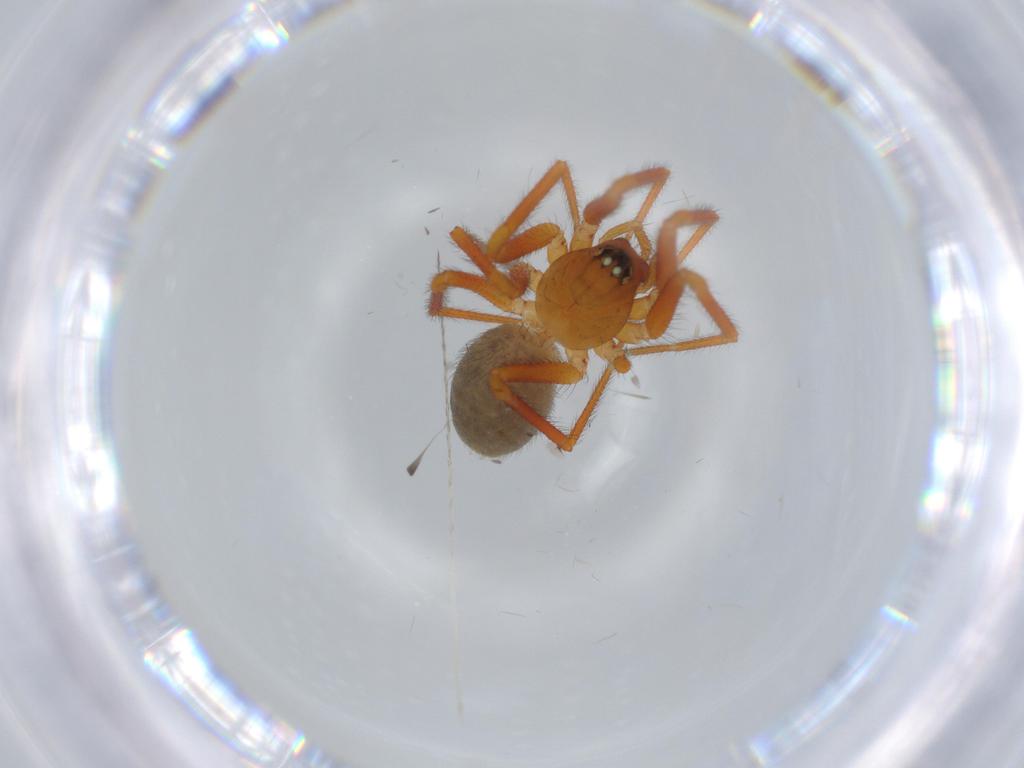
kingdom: Animalia
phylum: Arthropoda
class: Arachnida
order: Araneae
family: Linyphiidae
